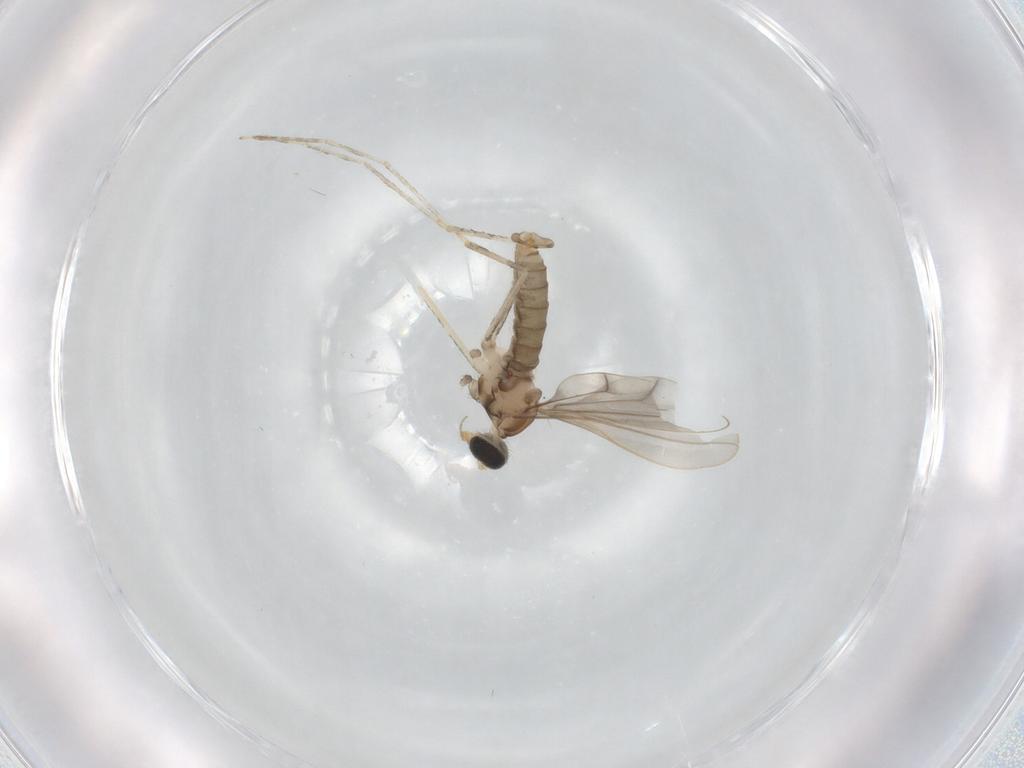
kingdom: Animalia
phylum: Arthropoda
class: Insecta
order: Diptera
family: Cecidomyiidae
